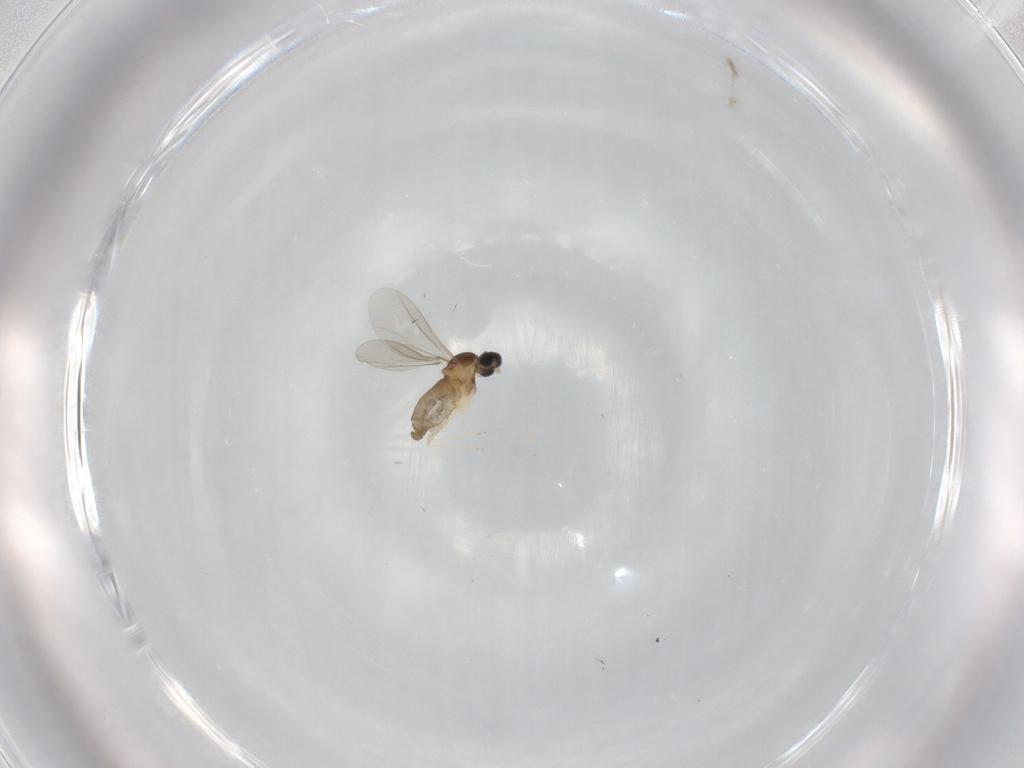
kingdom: Animalia
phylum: Arthropoda
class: Insecta
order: Diptera
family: Cecidomyiidae
